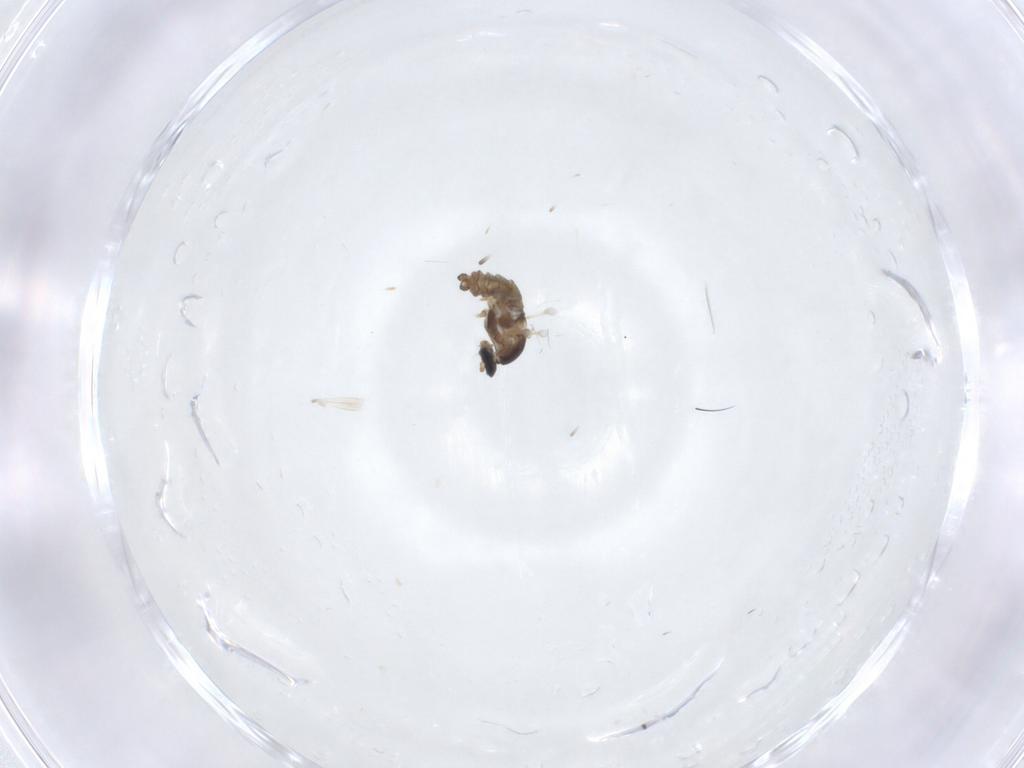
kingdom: Animalia
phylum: Arthropoda
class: Insecta
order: Diptera
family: Cecidomyiidae
